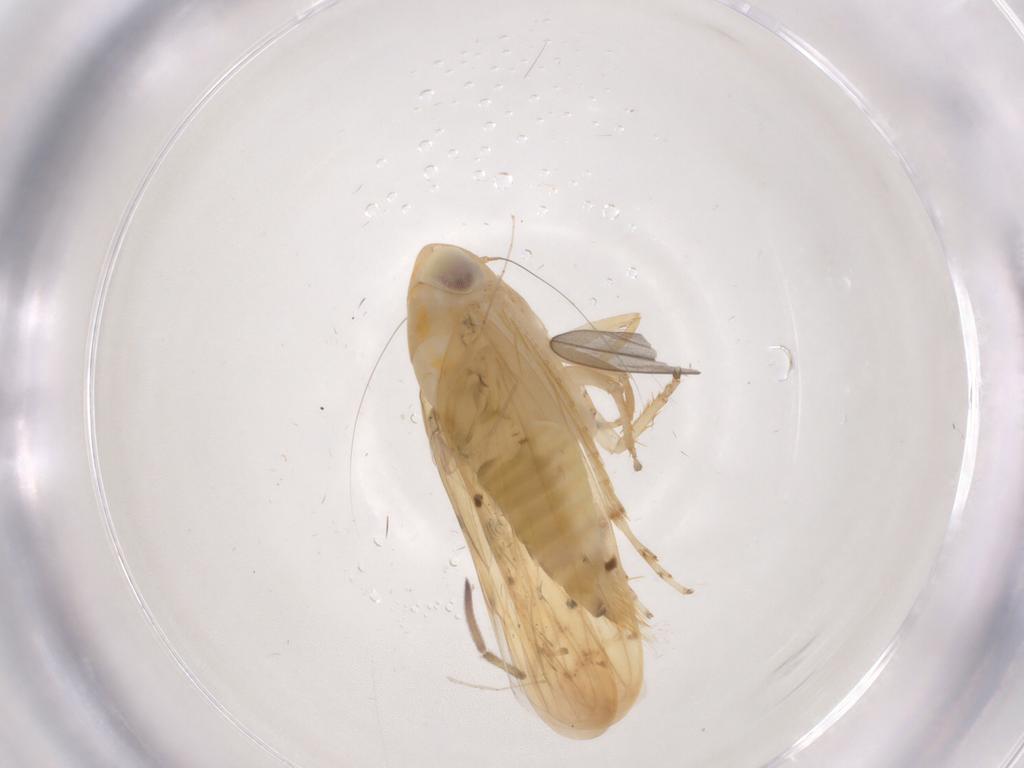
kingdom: Animalia
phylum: Arthropoda
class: Insecta
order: Hemiptera
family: Cicadellidae
